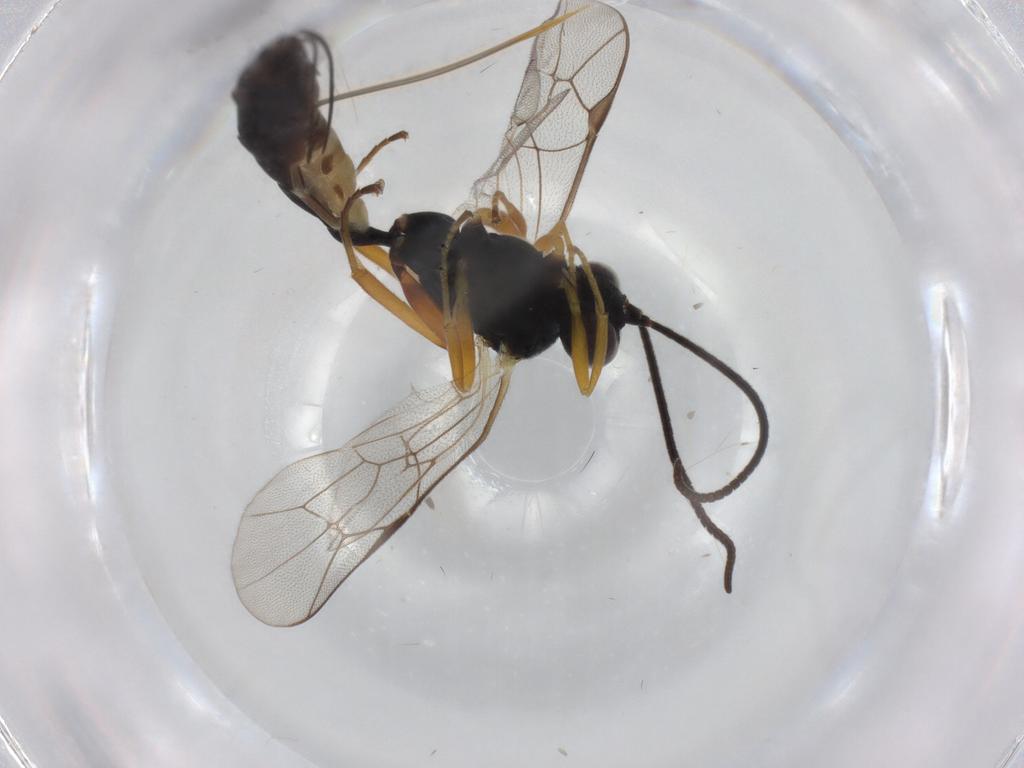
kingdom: Animalia
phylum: Arthropoda
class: Insecta
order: Hymenoptera
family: Ichneumonidae
